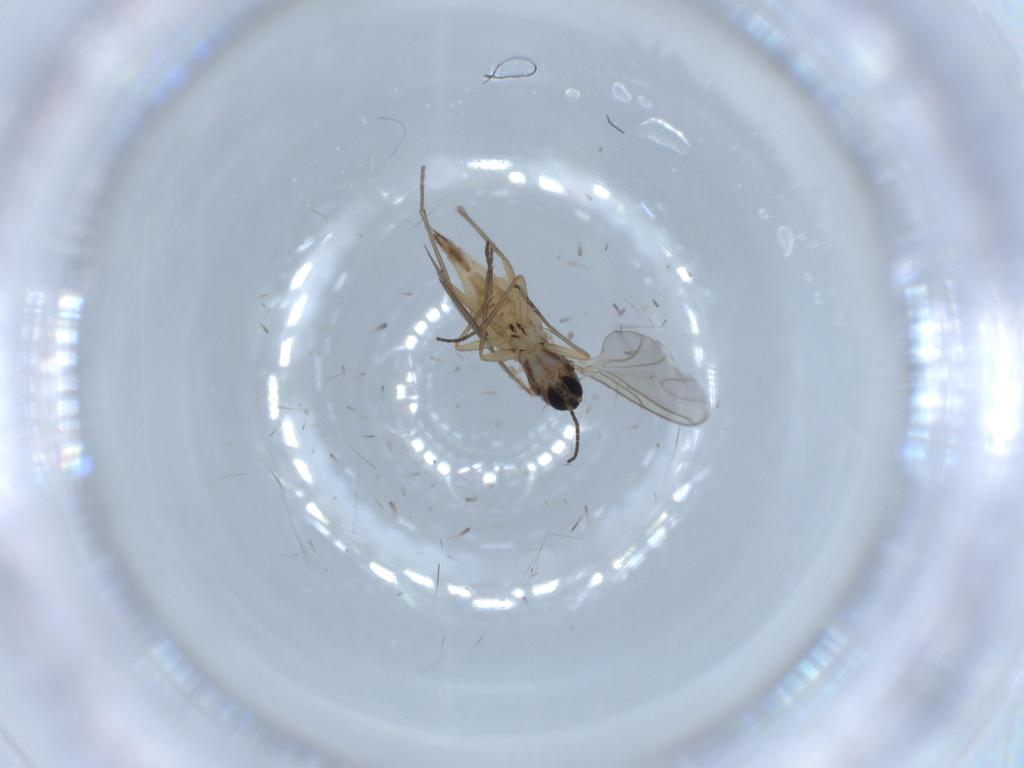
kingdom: Animalia
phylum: Arthropoda
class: Insecta
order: Diptera
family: Sciaridae
